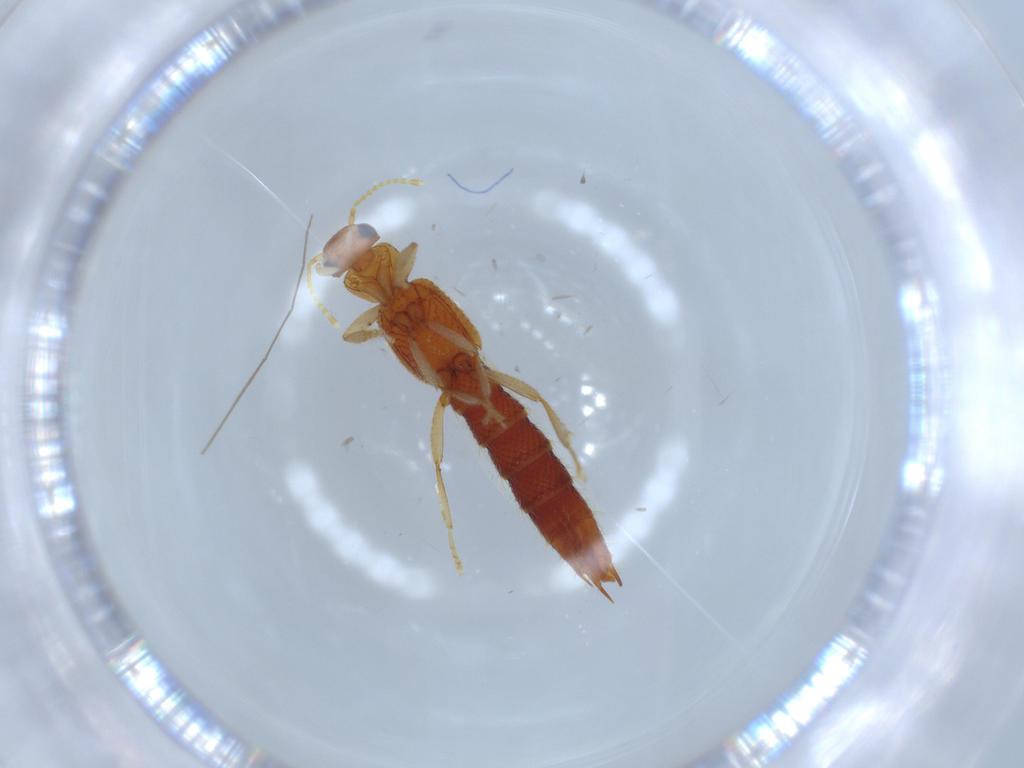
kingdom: Animalia
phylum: Arthropoda
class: Insecta
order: Coleoptera
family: Staphylinidae
